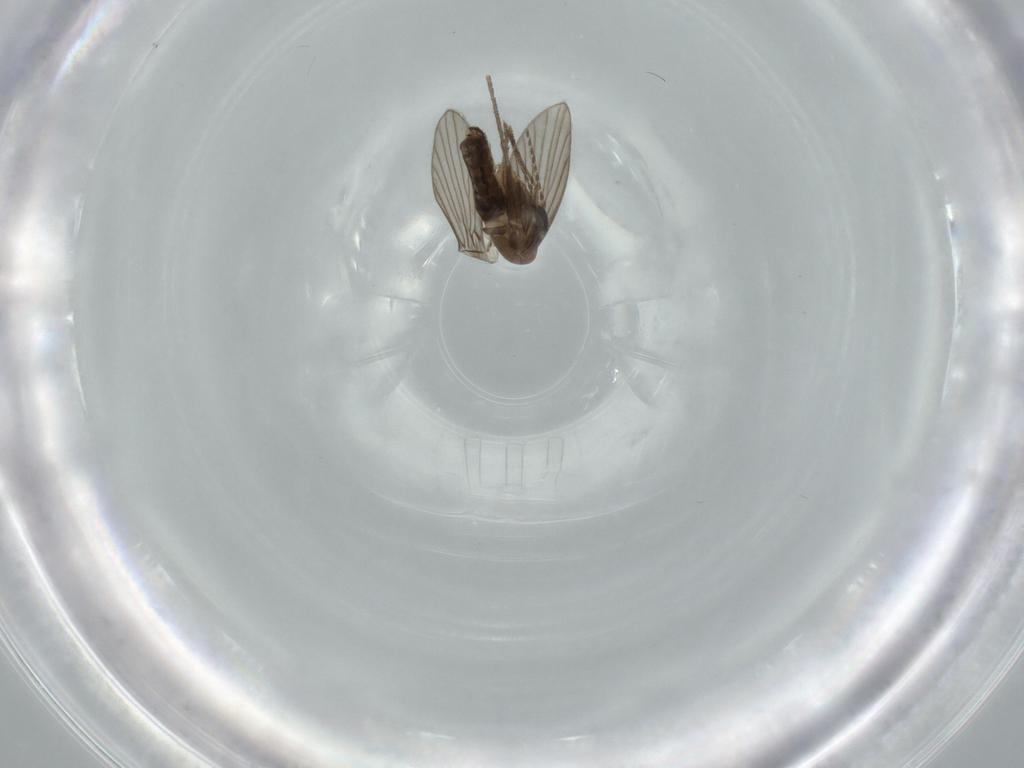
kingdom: Animalia
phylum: Arthropoda
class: Insecta
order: Diptera
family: Psychodidae
